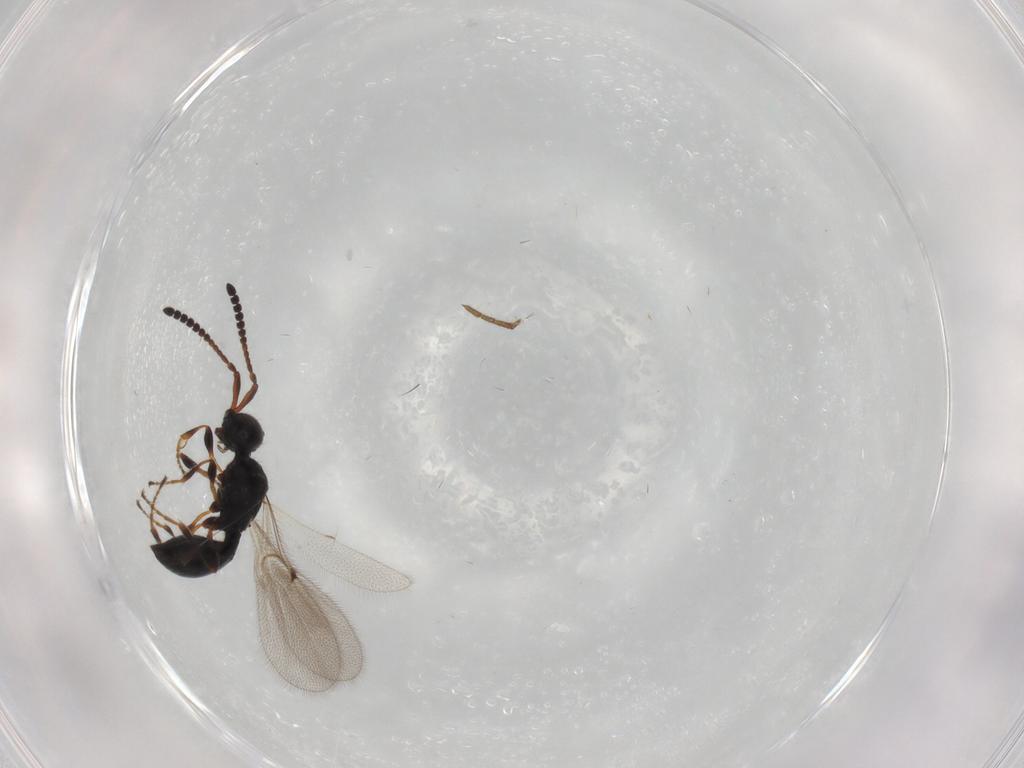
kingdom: Animalia
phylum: Arthropoda
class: Insecta
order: Hymenoptera
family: Diapriidae
